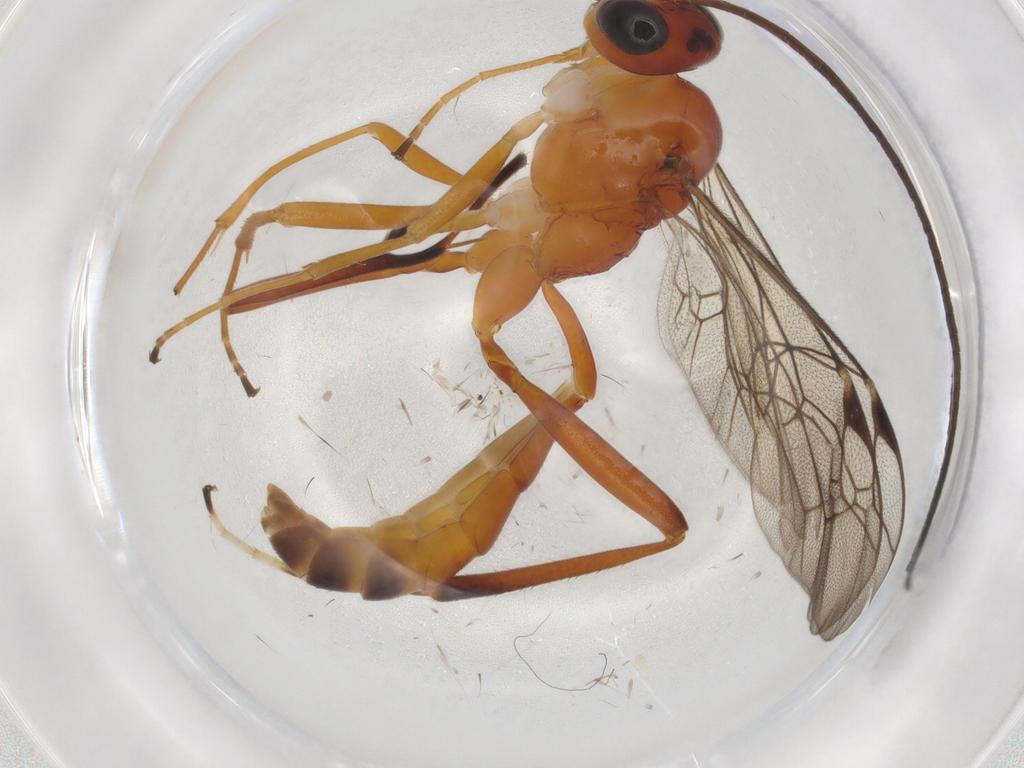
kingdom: Animalia
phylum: Arthropoda
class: Insecta
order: Hymenoptera
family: Ichneumonidae
